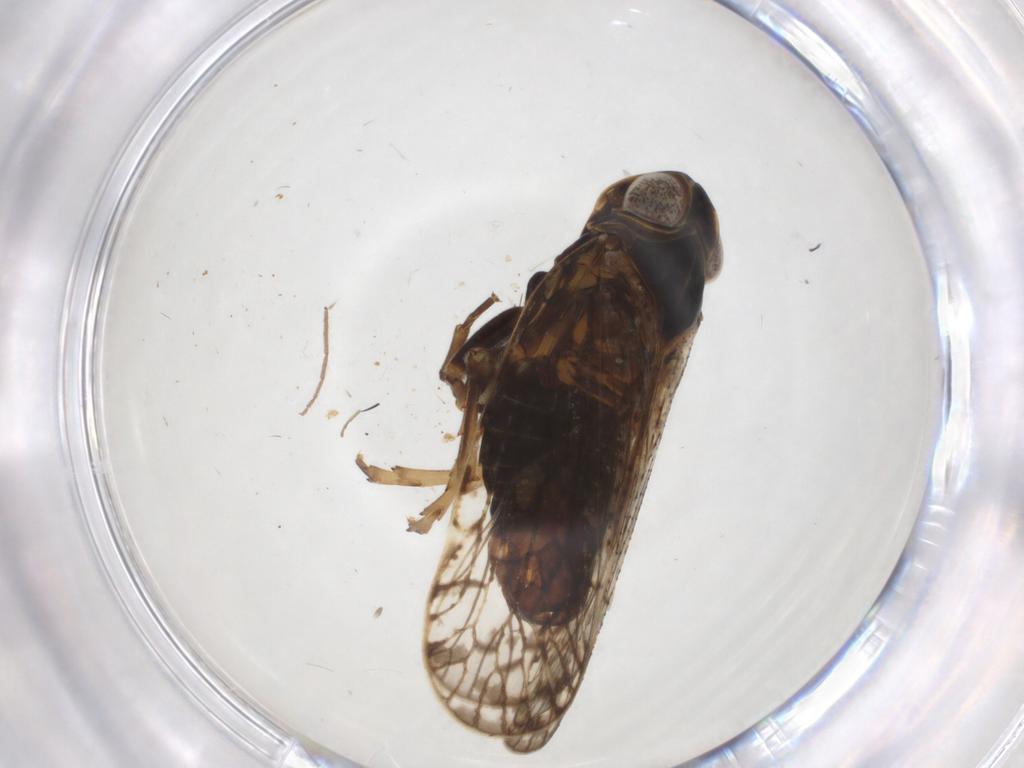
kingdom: Animalia
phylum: Arthropoda
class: Insecta
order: Hemiptera
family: Cixiidae
